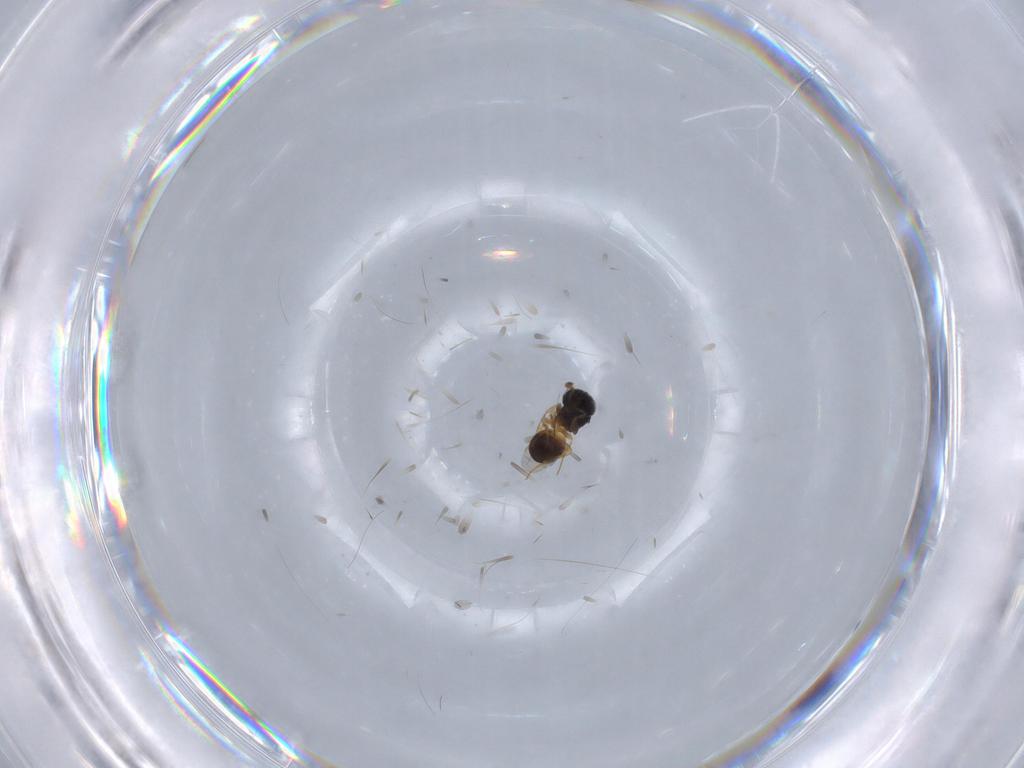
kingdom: Animalia
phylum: Arthropoda
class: Insecta
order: Hymenoptera
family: Scelionidae
